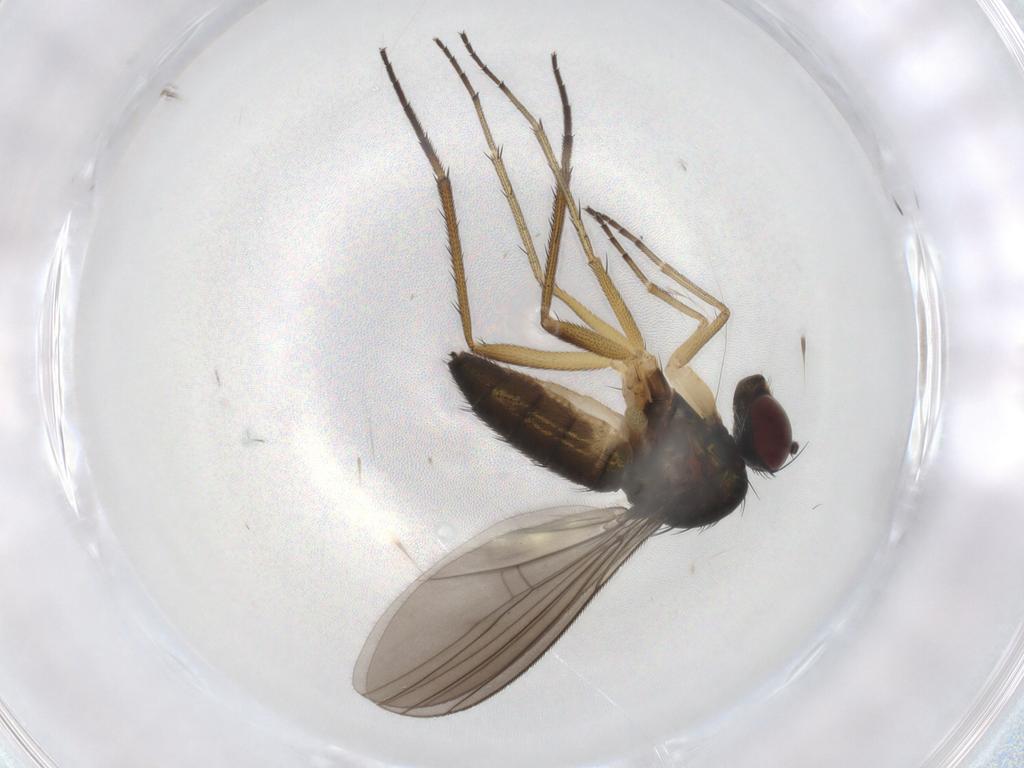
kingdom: Animalia
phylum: Arthropoda
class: Insecta
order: Diptera
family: Dolichopodidae
